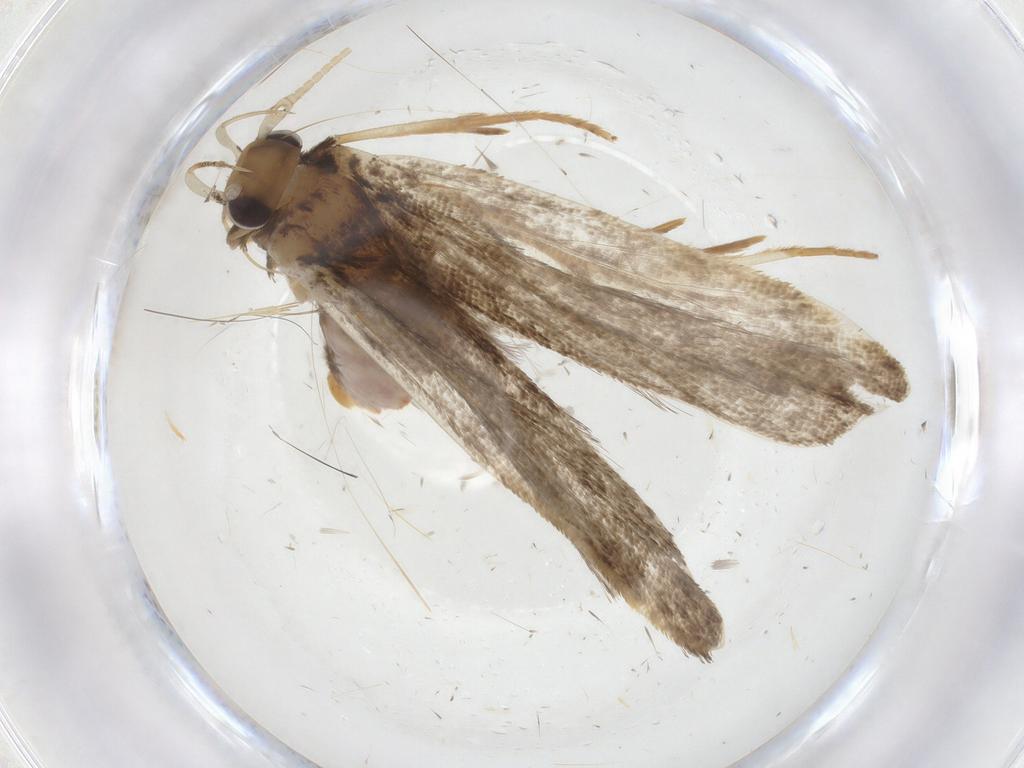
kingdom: Animalia
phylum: Arthropoda
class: Insecta
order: Lepidoptera
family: Lecithoceridae
